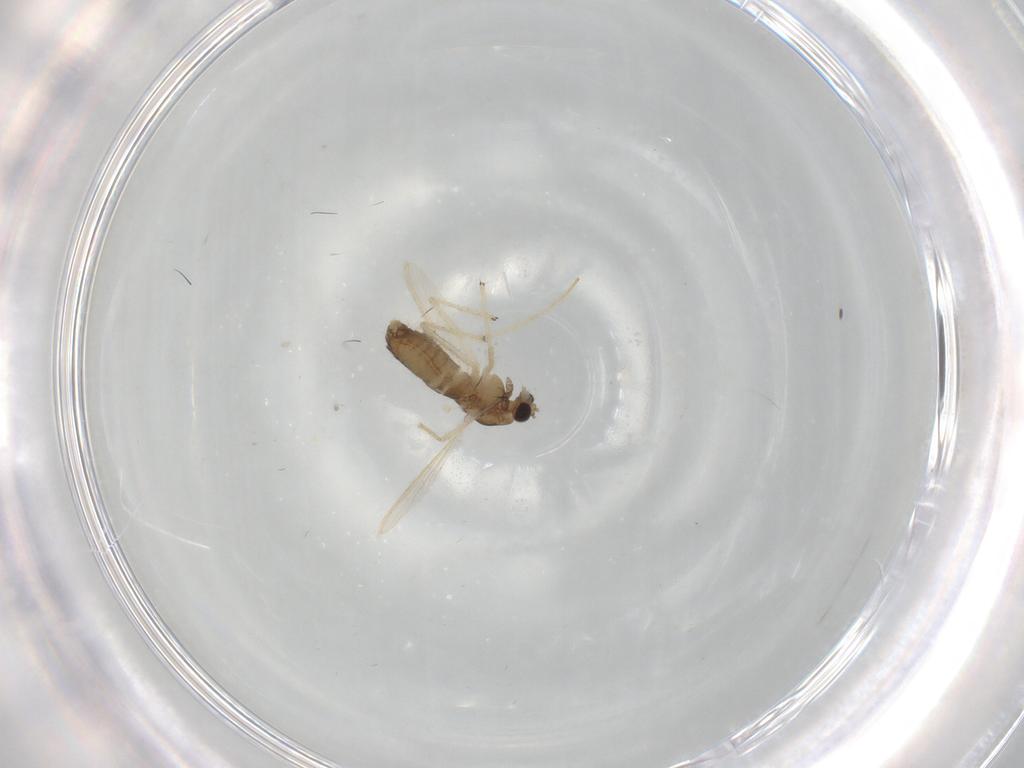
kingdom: Animalia
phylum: Arthropoda
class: Insecta
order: Diptera
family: Chironomidae
